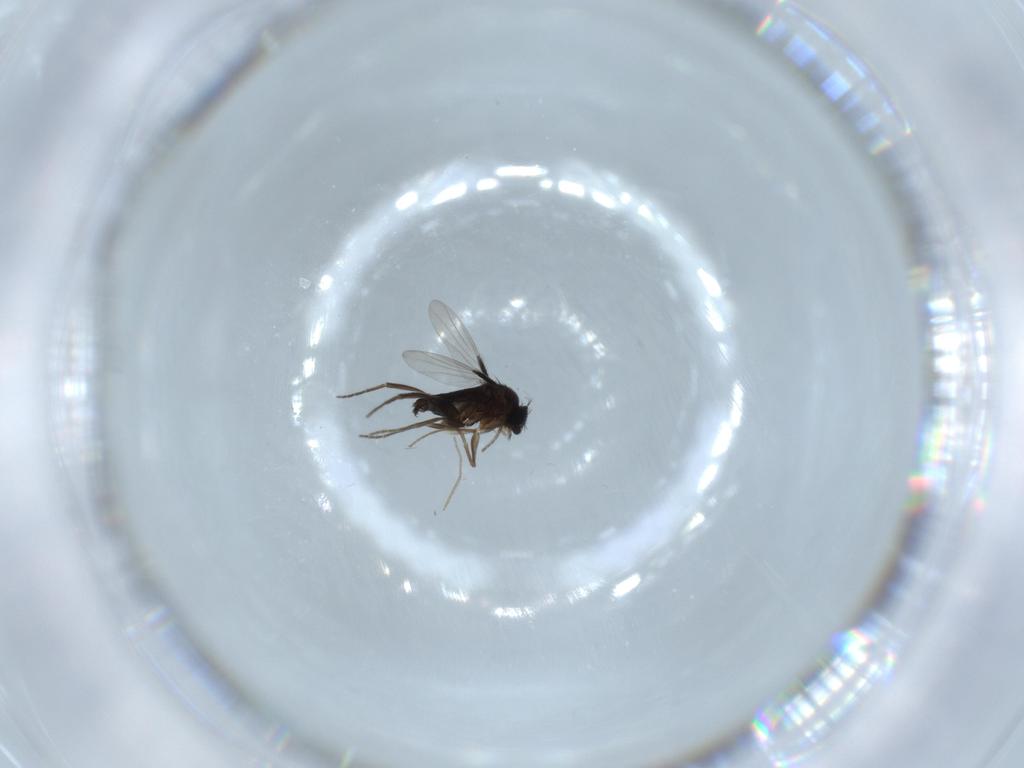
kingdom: Animalia
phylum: Arthropoda
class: Insecta
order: Diptera
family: Phoridae
